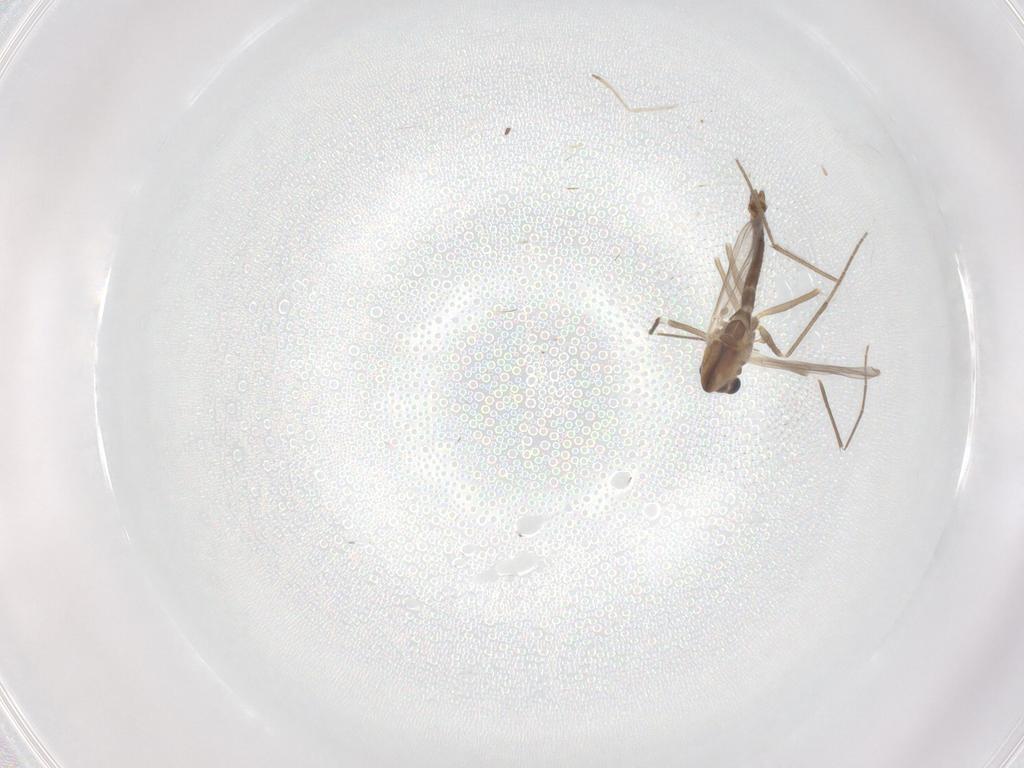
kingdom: Animalia
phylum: Arthropoda
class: Insecta
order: Diptera
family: Chironomidae
